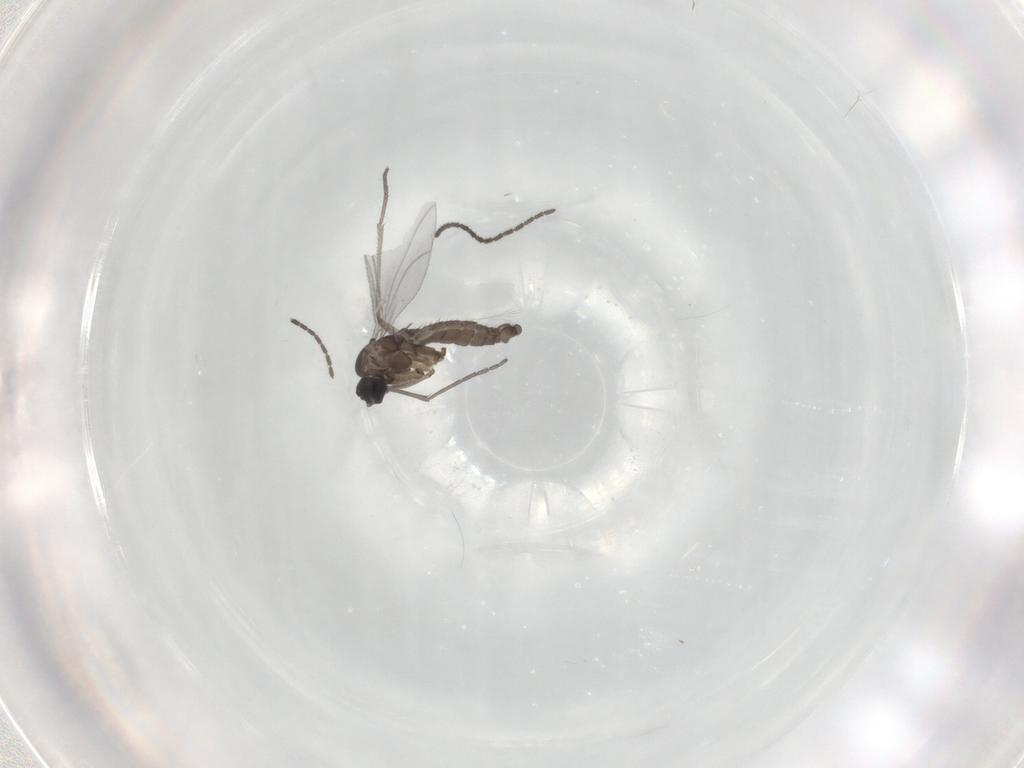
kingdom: Animalia
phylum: Arthropoda
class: Insecta
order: Diptera
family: Sciaridae
